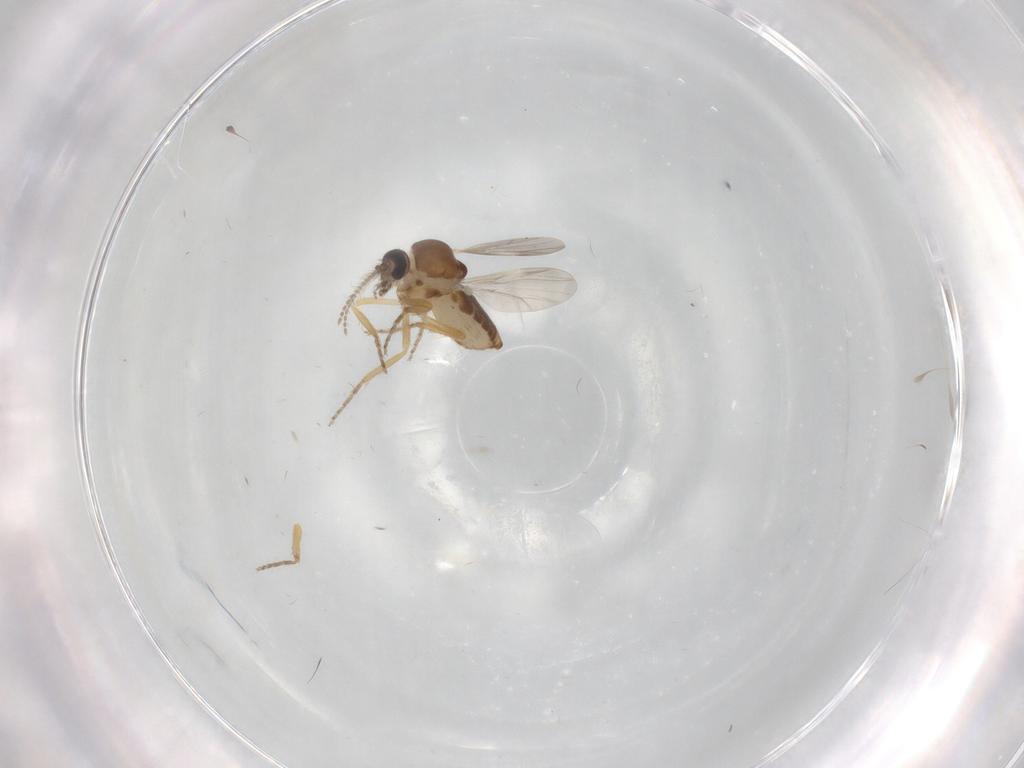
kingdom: Animalia
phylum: Arthropoda
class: Insecta
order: Diptera
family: Ceratopogonidae
